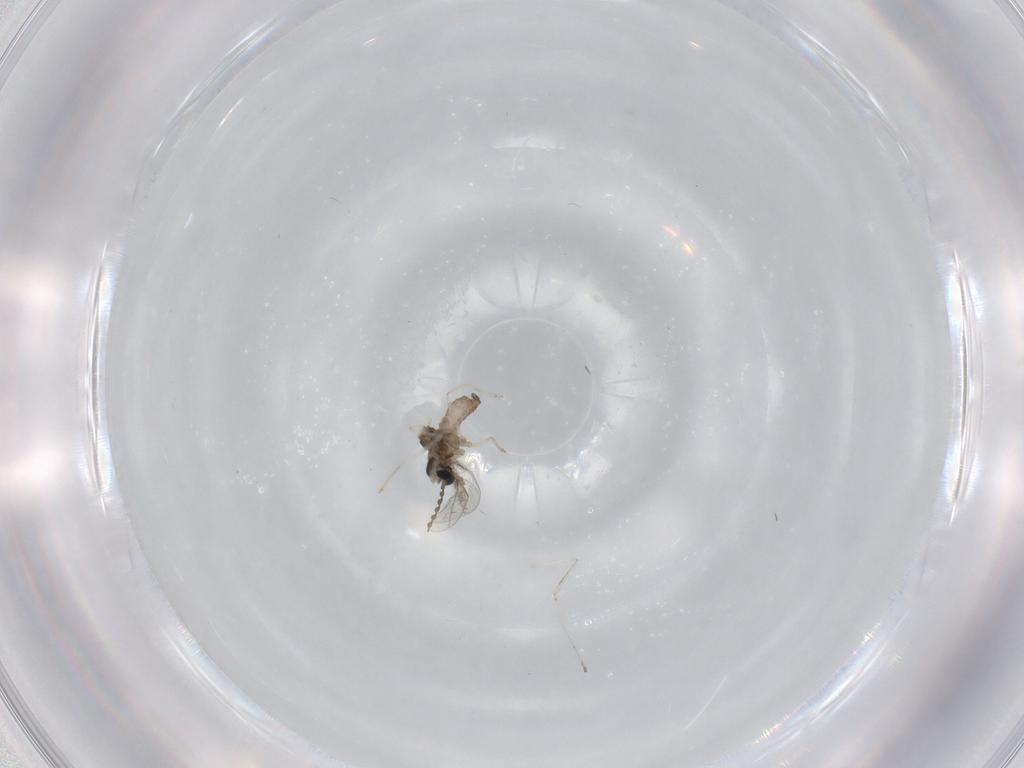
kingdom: Animalia
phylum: Arthropoda
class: Insecta
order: Diptera
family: Cecidomyiidae
